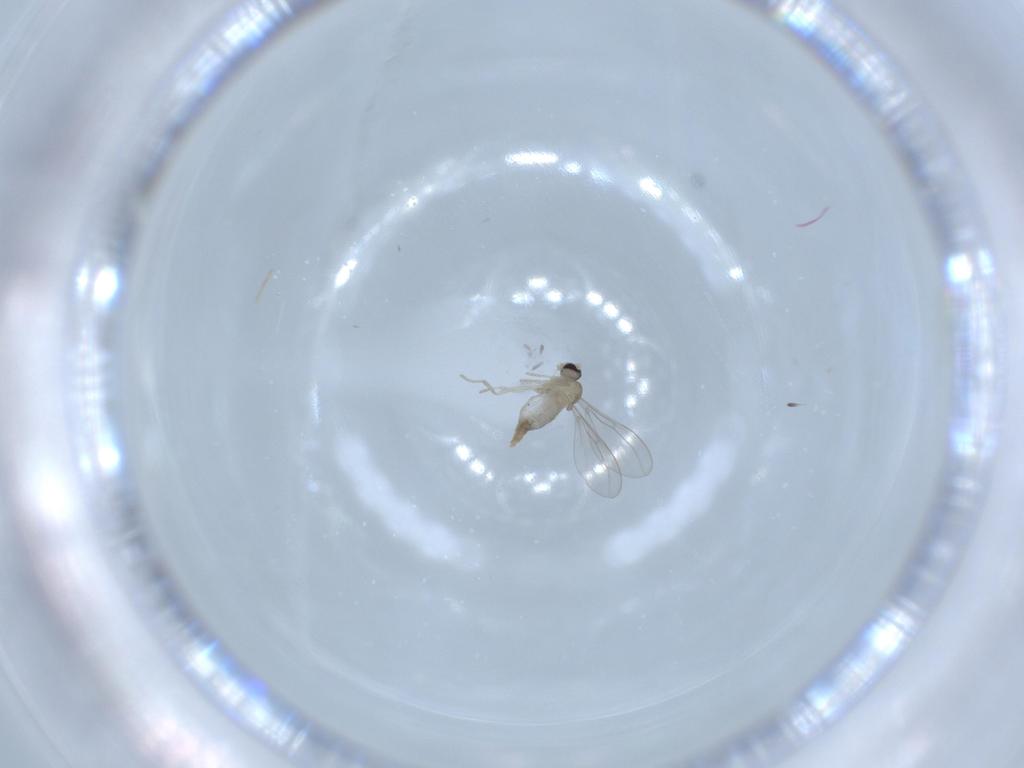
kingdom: Animalia
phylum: Arthropoda
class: Insecta
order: Diptera
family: Cecidomyiidae
